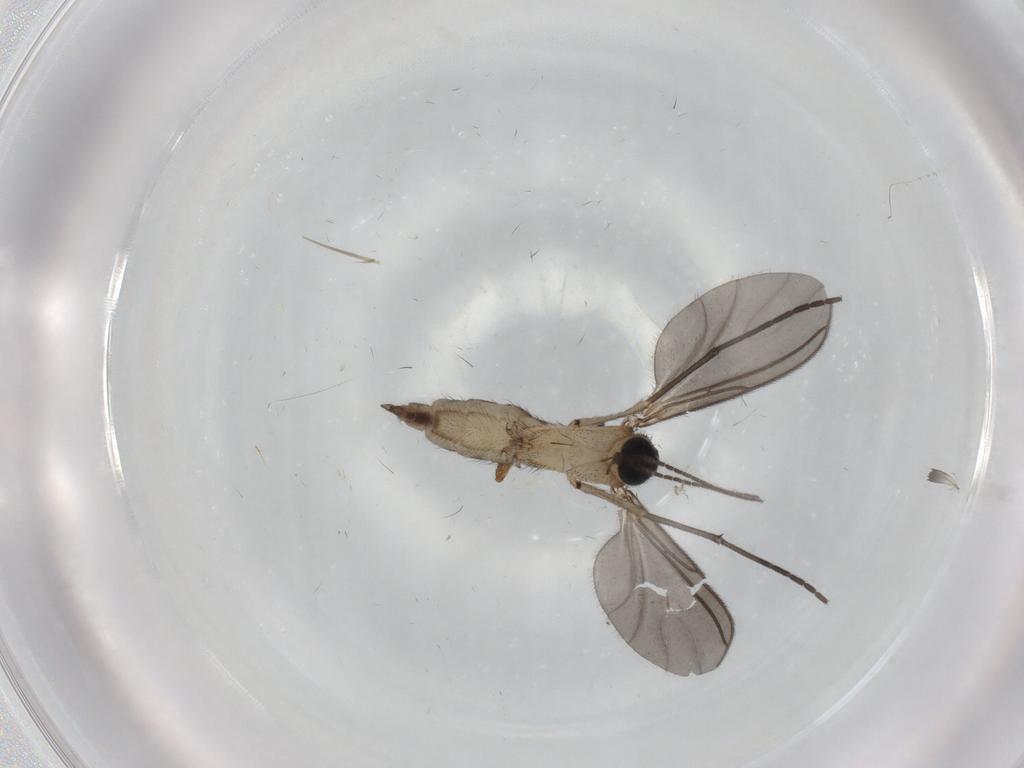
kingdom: Animalia
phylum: Arthropoda
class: Insecta
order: Diptera
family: Sciaridae
